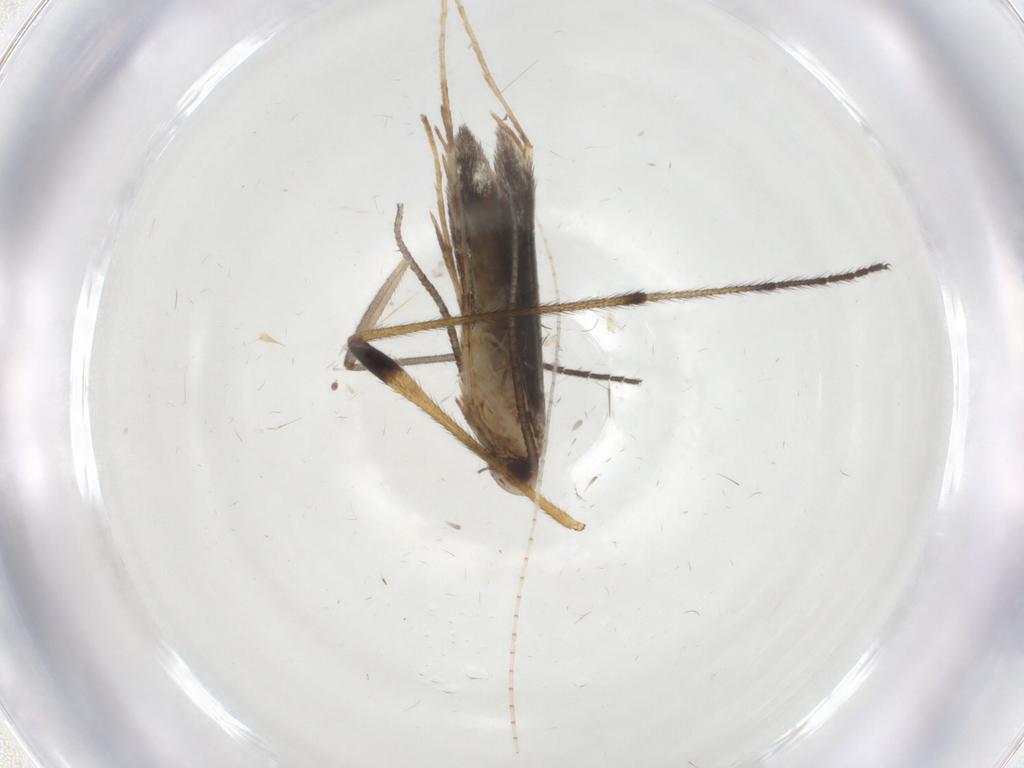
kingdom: Animalia
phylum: Arthropoda
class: Insecta
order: Lepidoptera
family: Gracillariidae
